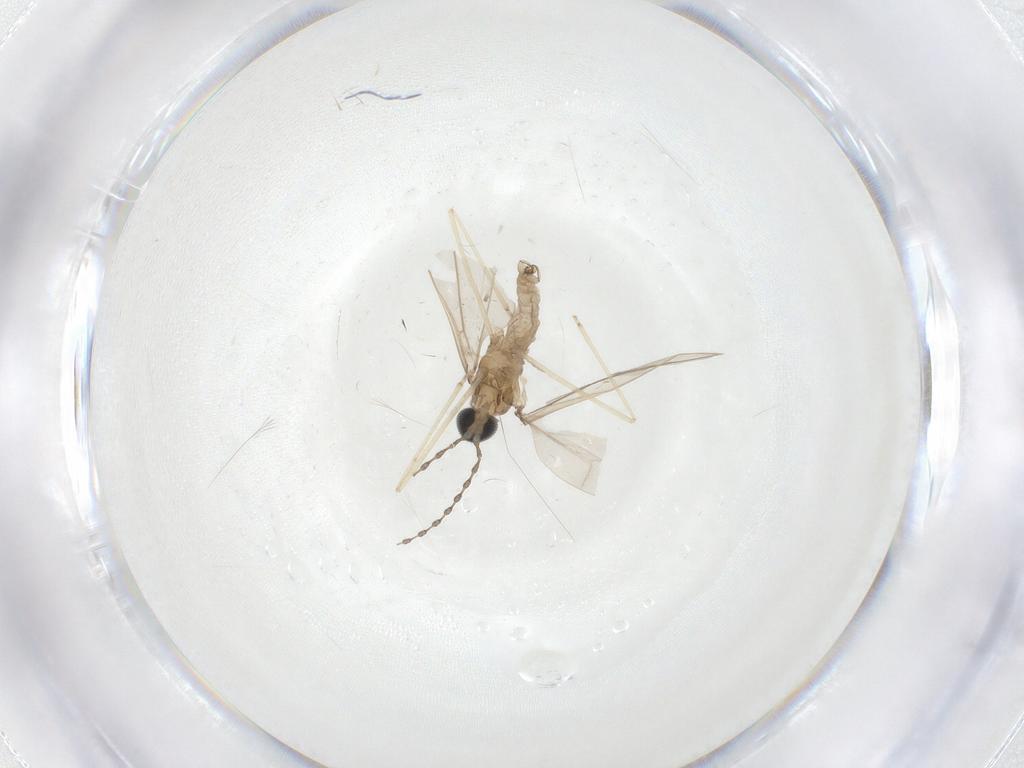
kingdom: Animalia
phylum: Arthropoda
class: Insecta
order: Diptera
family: Cecidomyiidae
